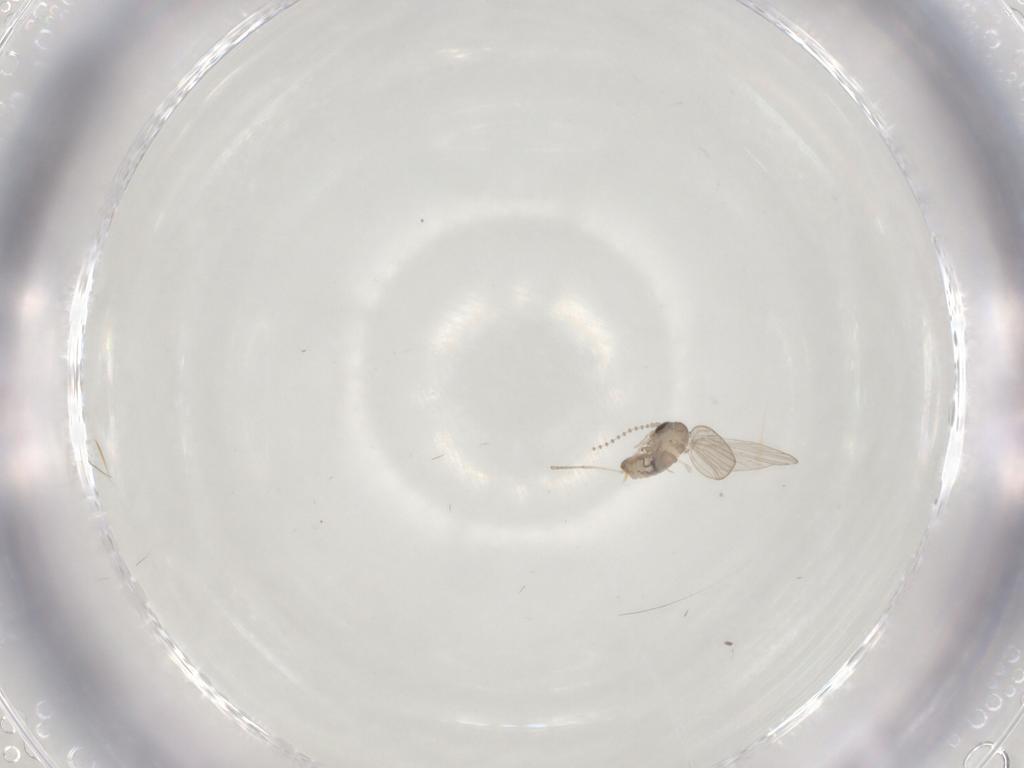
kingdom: Animalia
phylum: Arthropoda
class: Insecta
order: Diptera
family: Psychodidae
